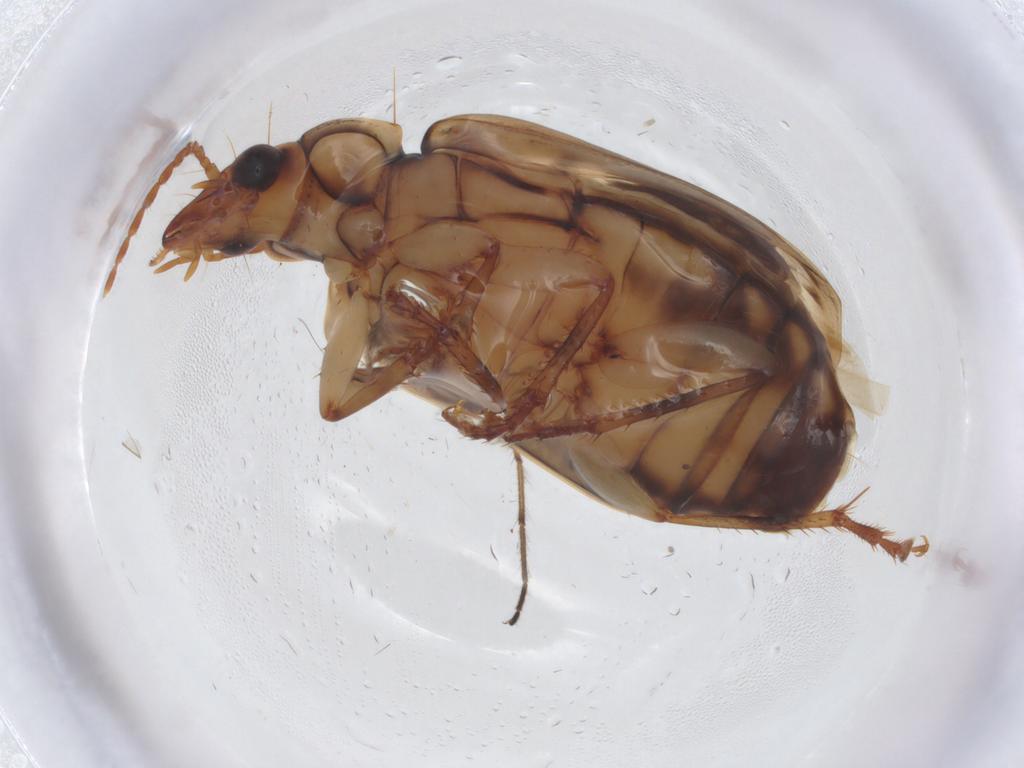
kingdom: Animalia
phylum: Arthropoda
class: Insecta
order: Coleoptera
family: Carabidae
